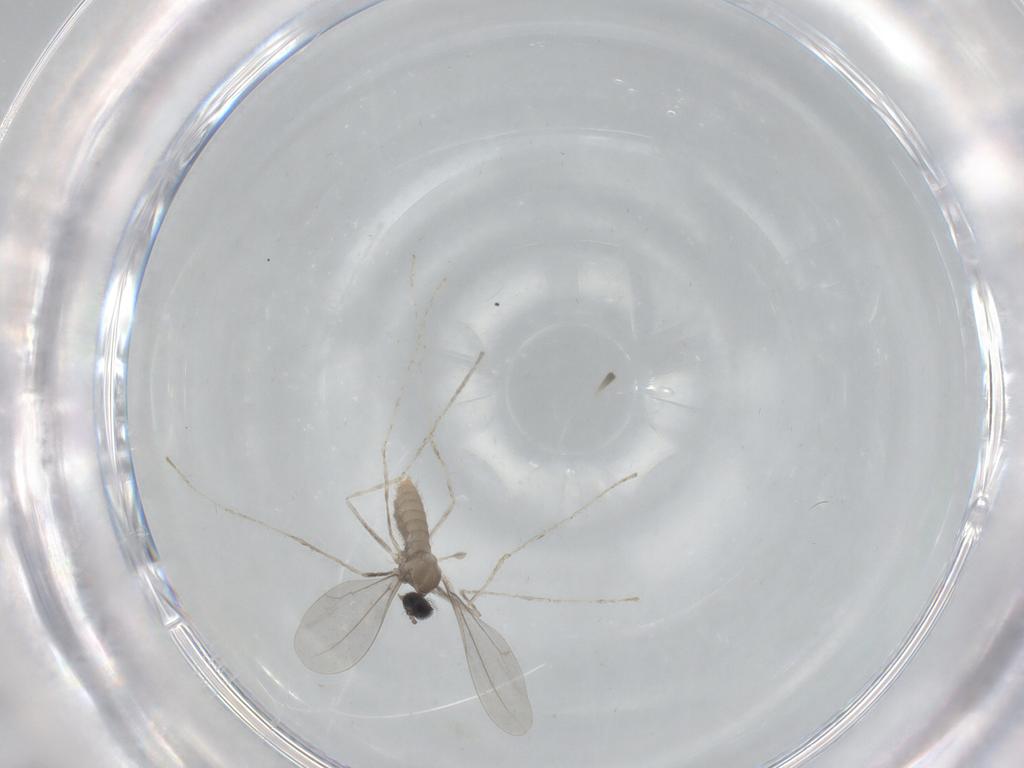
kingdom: Animalia
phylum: Arthropoda
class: Insecta
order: Diptera
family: Cecidomyiidae
